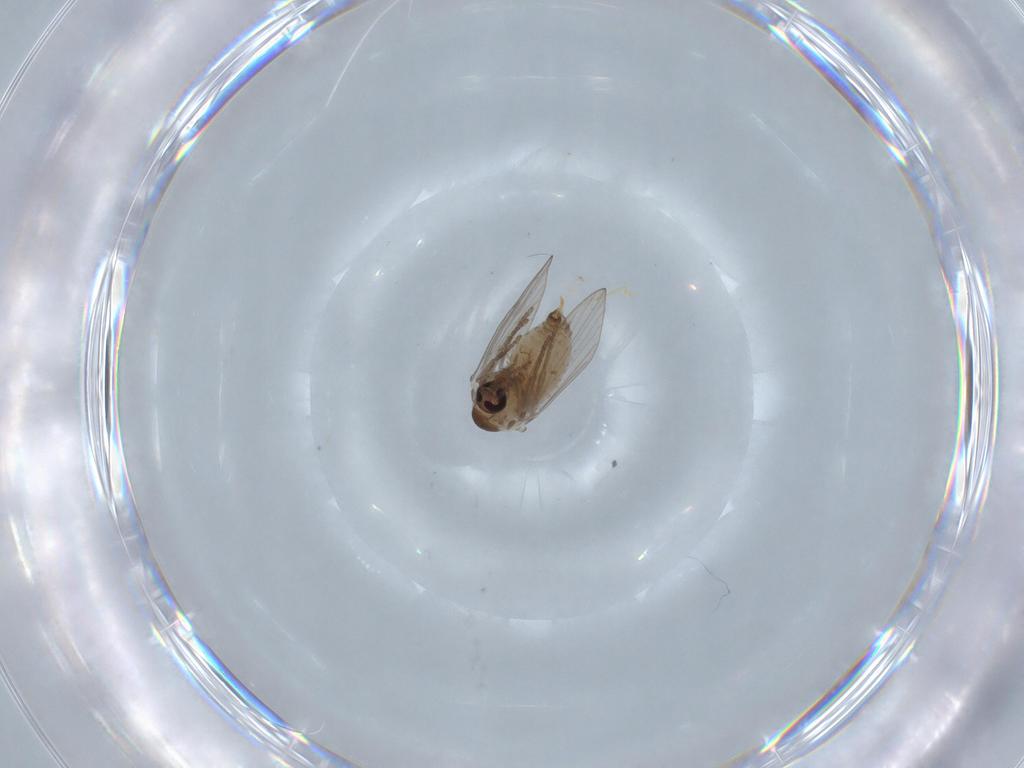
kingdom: Animalia
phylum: Arthropoda
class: Insecta
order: Diptera
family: Psychodidae
